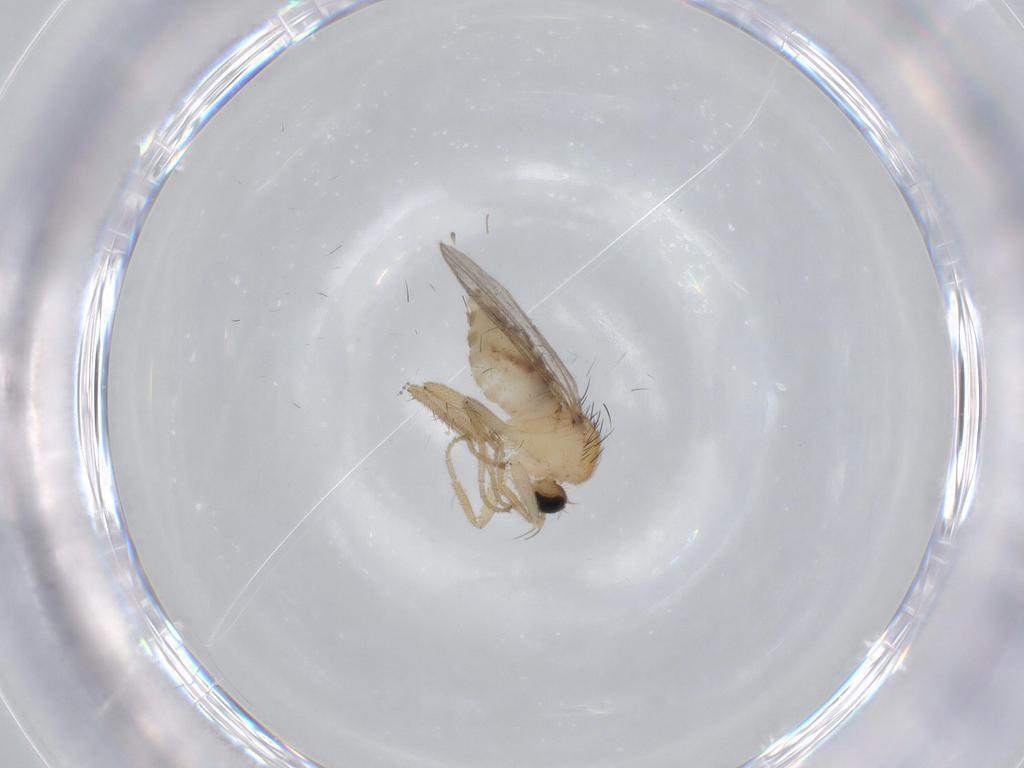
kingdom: Animalia
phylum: Arthropoda
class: Insecta
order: Diptera
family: Hybotidae
